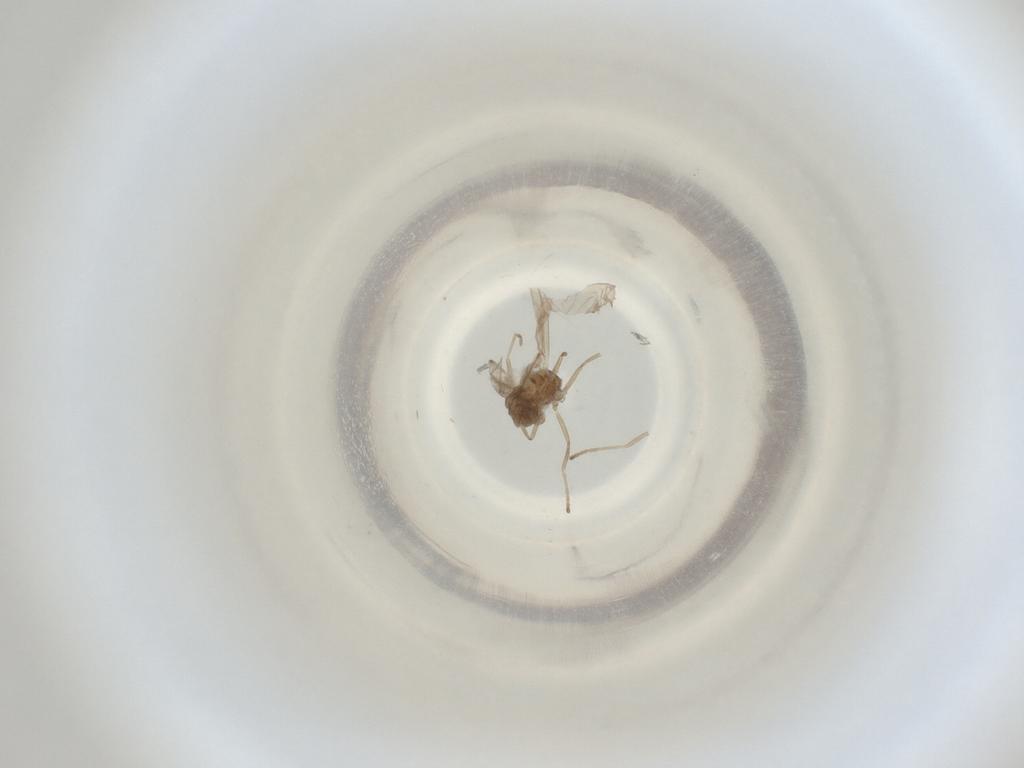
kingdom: Animalia
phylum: Arthropoda
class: Insecta
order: Diptera
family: Cecidomyiidae
